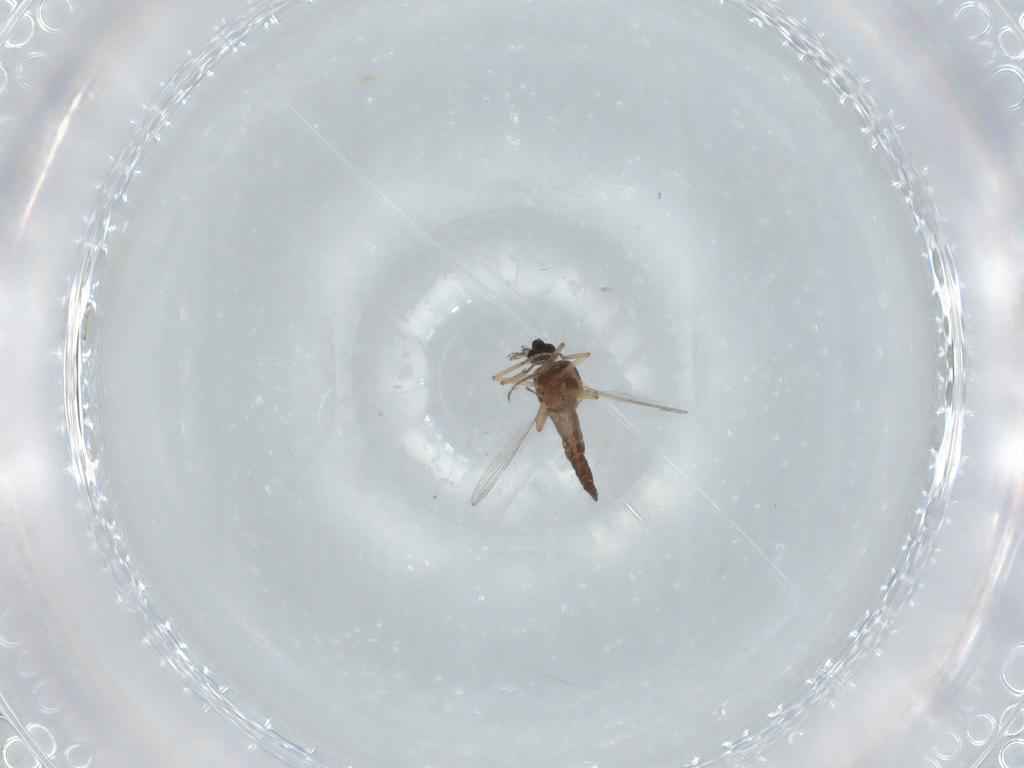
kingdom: Animalia
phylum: Arthropoda
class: Insecta
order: Diptera
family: Ceratopogonidae
